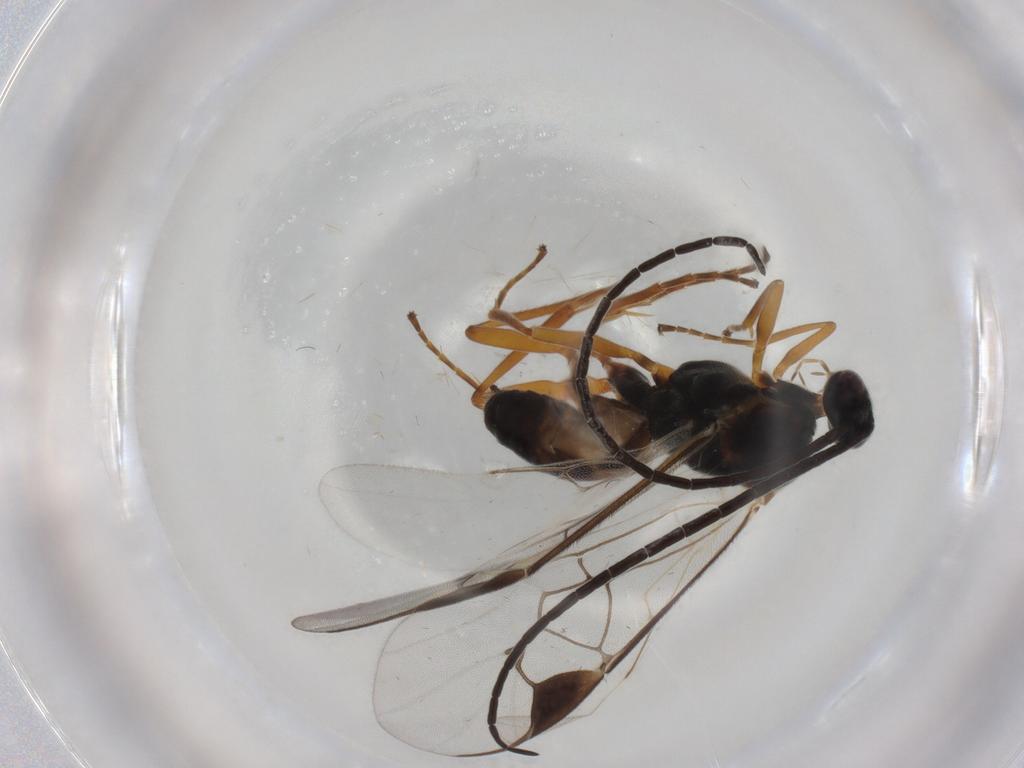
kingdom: Animalia
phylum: Arthropoda
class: Insecta
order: Hymenoptera
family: Braconidae
